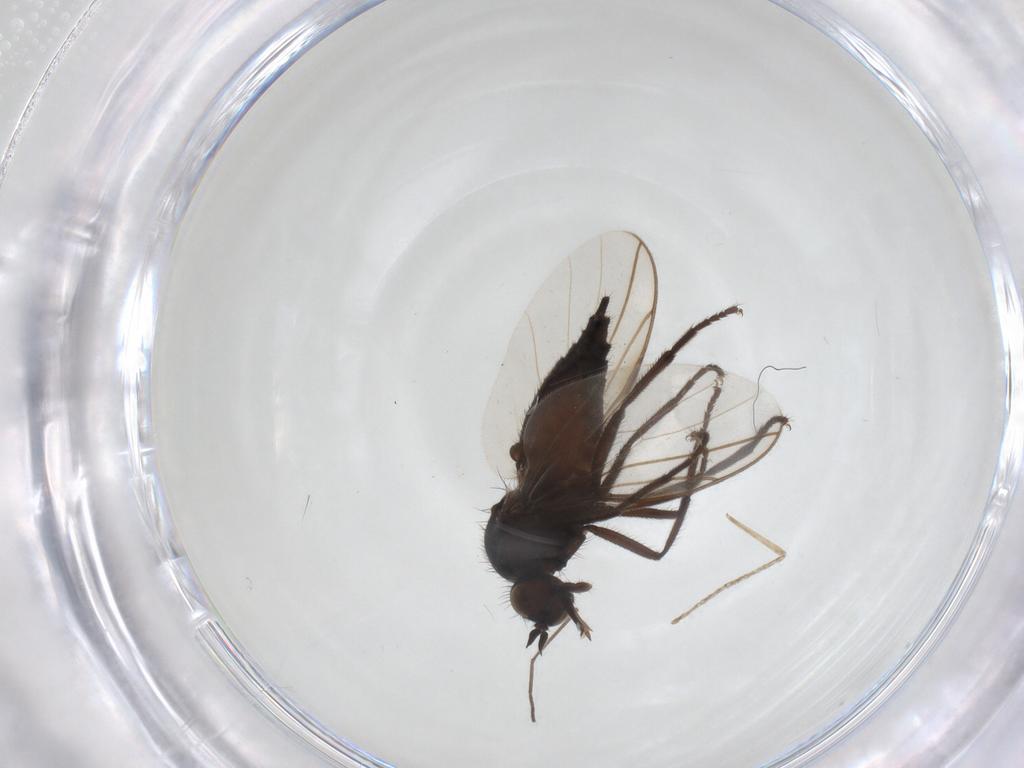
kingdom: Animalia
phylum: Arthropoda
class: Insecta
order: Diptera
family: Empididae
